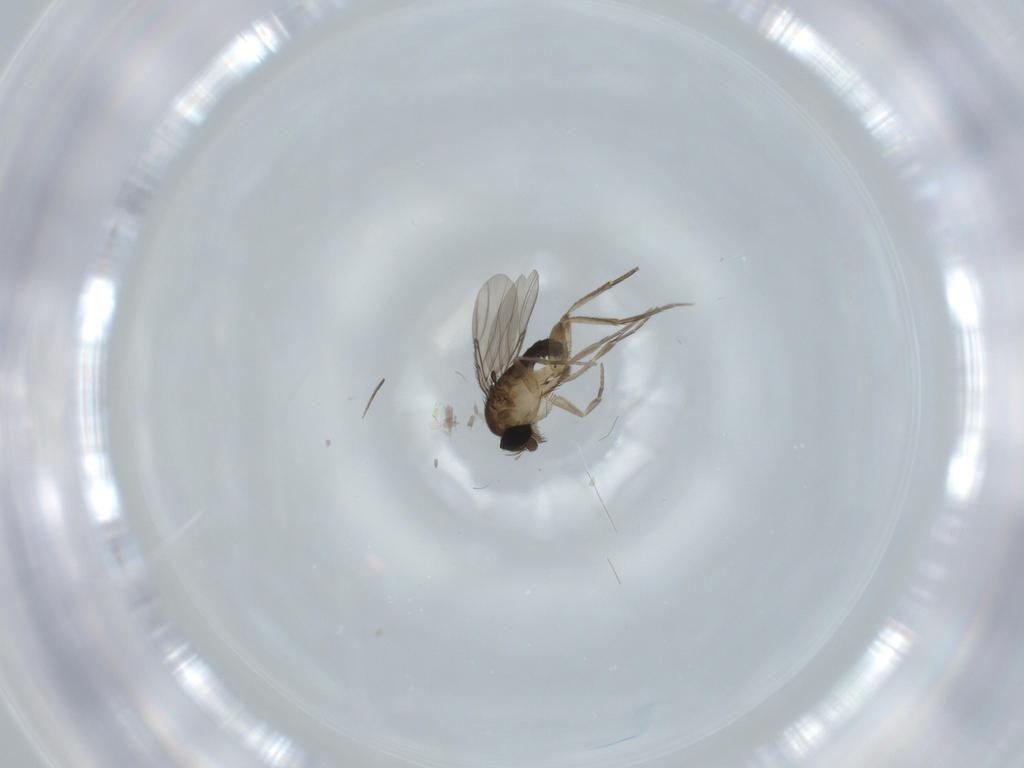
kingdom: Animalia
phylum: Arthropoda
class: Insecta
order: Diptera
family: Phoridae
